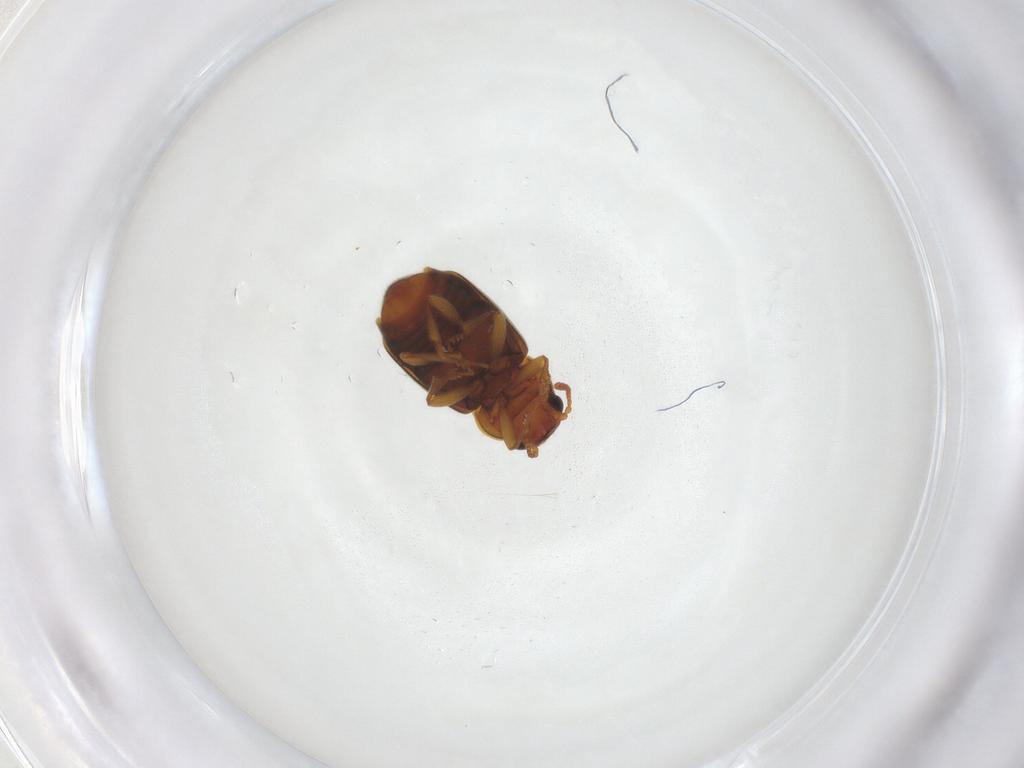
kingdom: Animalia
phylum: Arthropoda
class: Insecta
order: Coleoptera
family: Kateretidae
